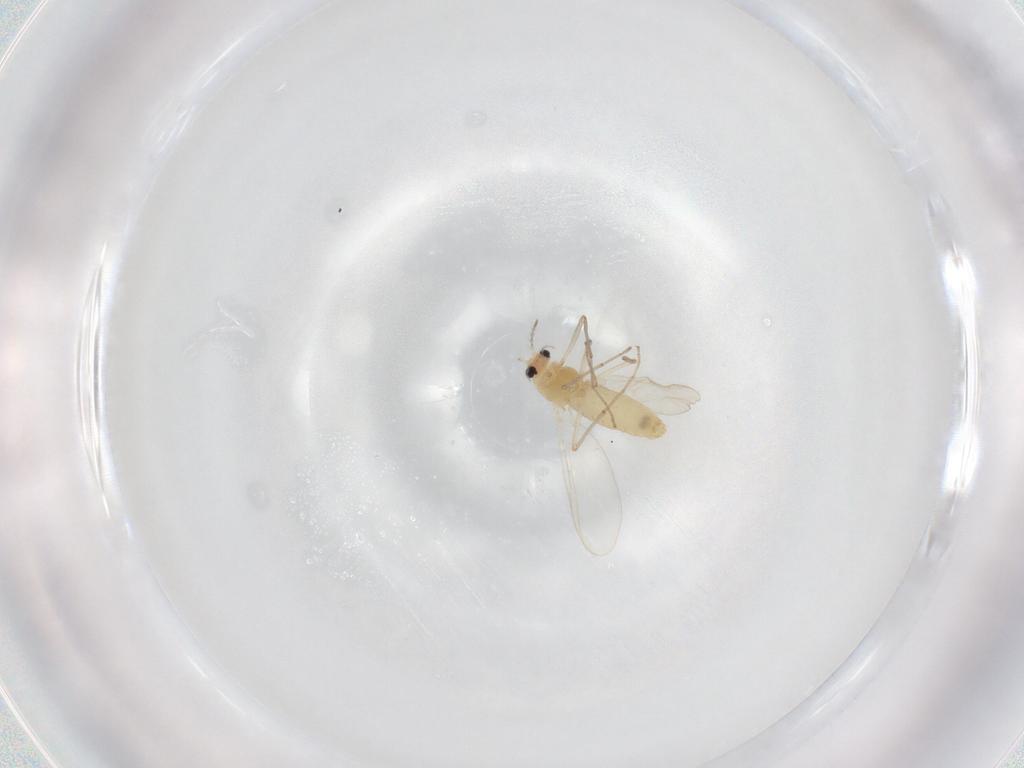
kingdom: Animalia
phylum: Arthropoda
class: Insecta
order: Diptera
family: Chironomidae
